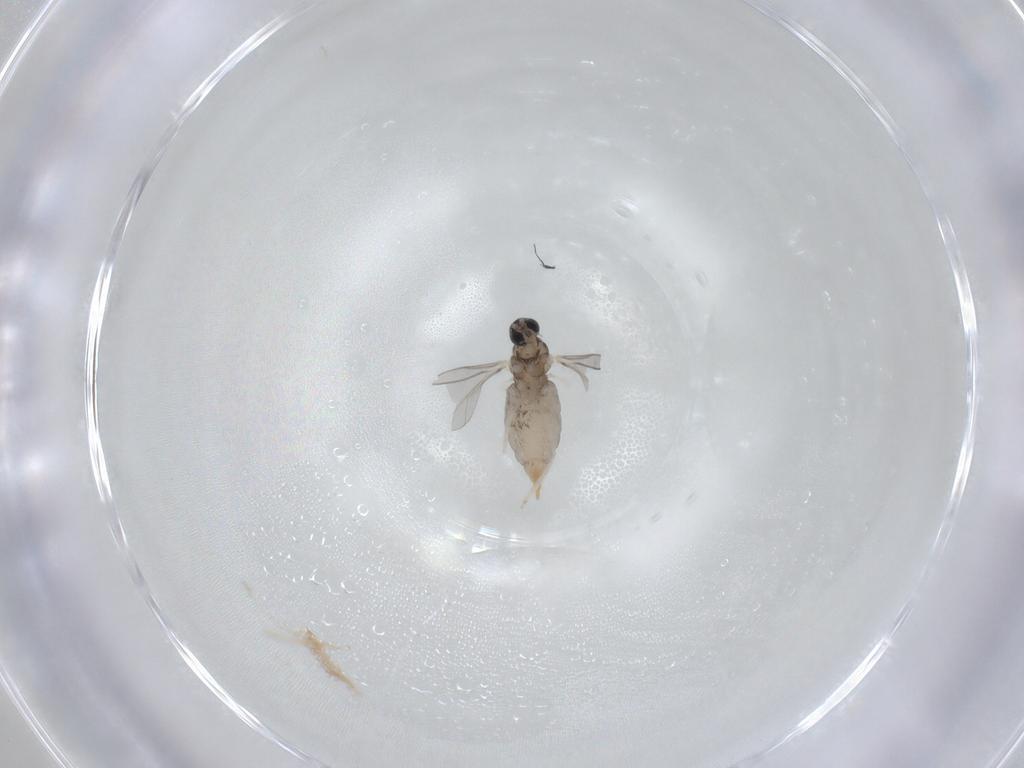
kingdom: Animalia
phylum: Arthropoda
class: Insecta
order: Diptera
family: Cecidomyiidae
